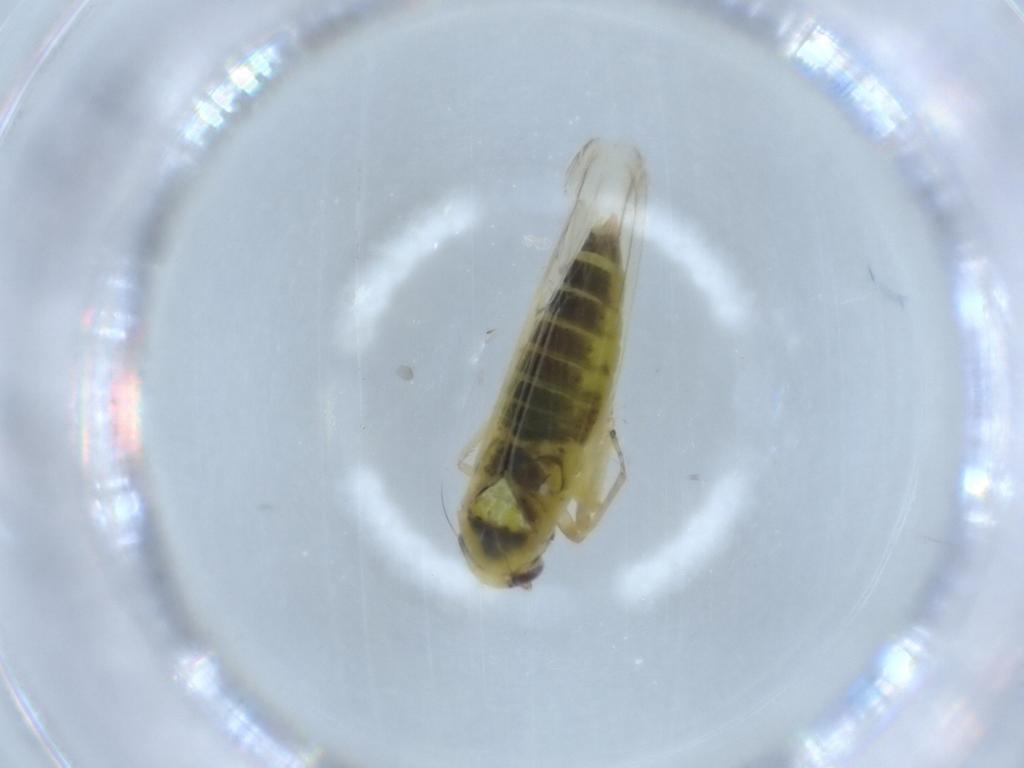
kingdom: Animalia
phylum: Arthropoda
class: Insecta
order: Hemiptera
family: Cicadellidae
